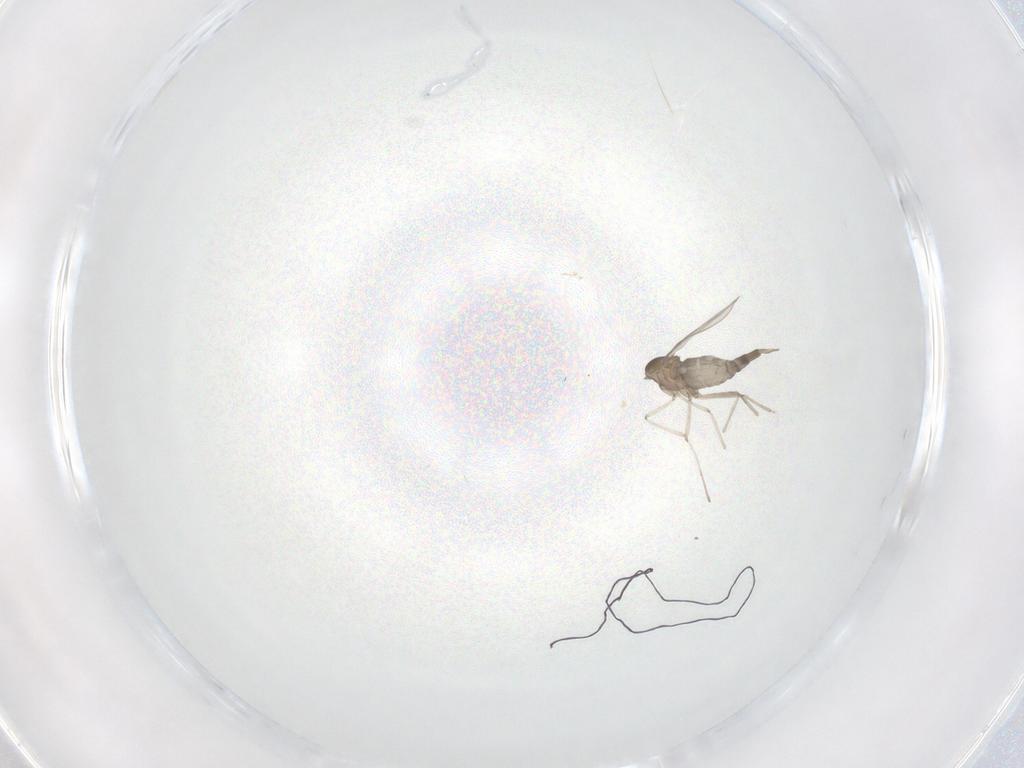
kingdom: Animalia
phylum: Arthropoda
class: Insecta
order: Diptera
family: Cecidomyiidae
